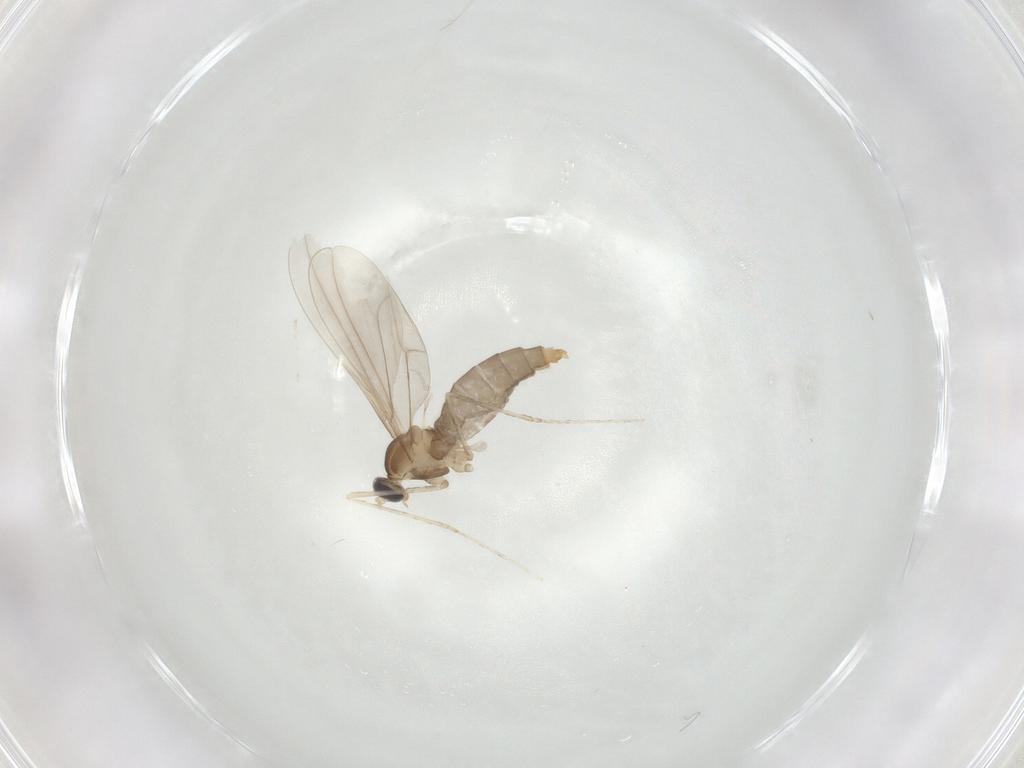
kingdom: Animalia
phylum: Arthropoda
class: Insecta
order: Diptera
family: Cecidomyiidae
